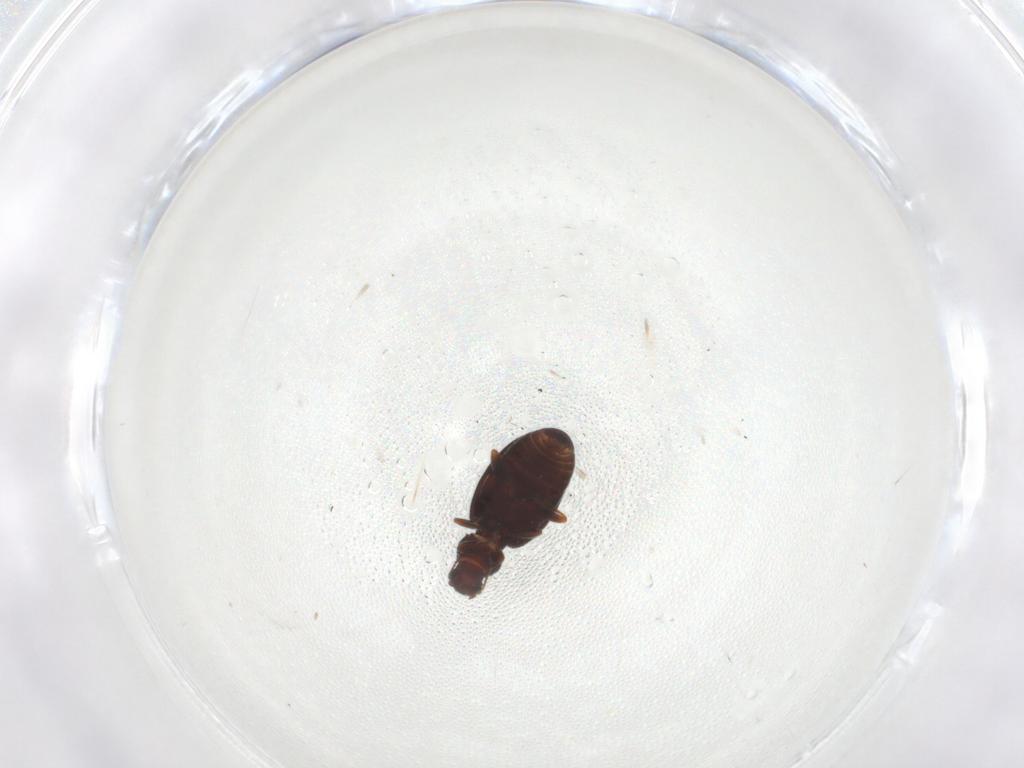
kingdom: Animalia
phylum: Arthropoda
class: Insecta
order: Coleoptera
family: Latridiidae
